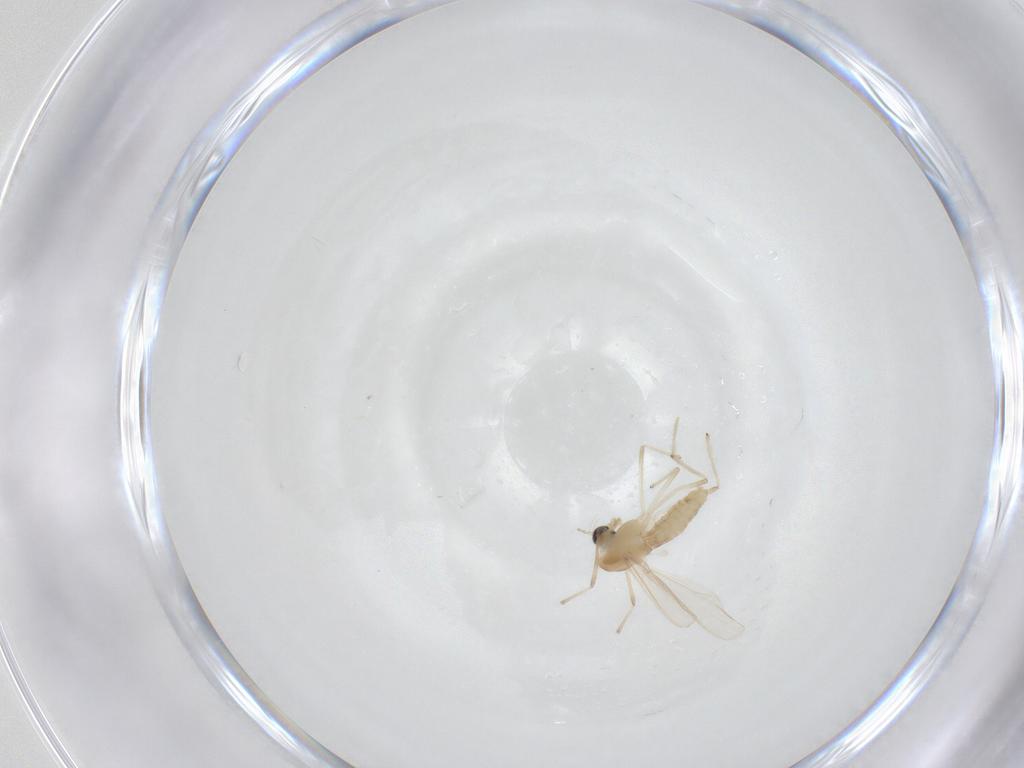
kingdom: Animalia
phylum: Arthropoda
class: Insecta
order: Diptera
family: Chironomidae
